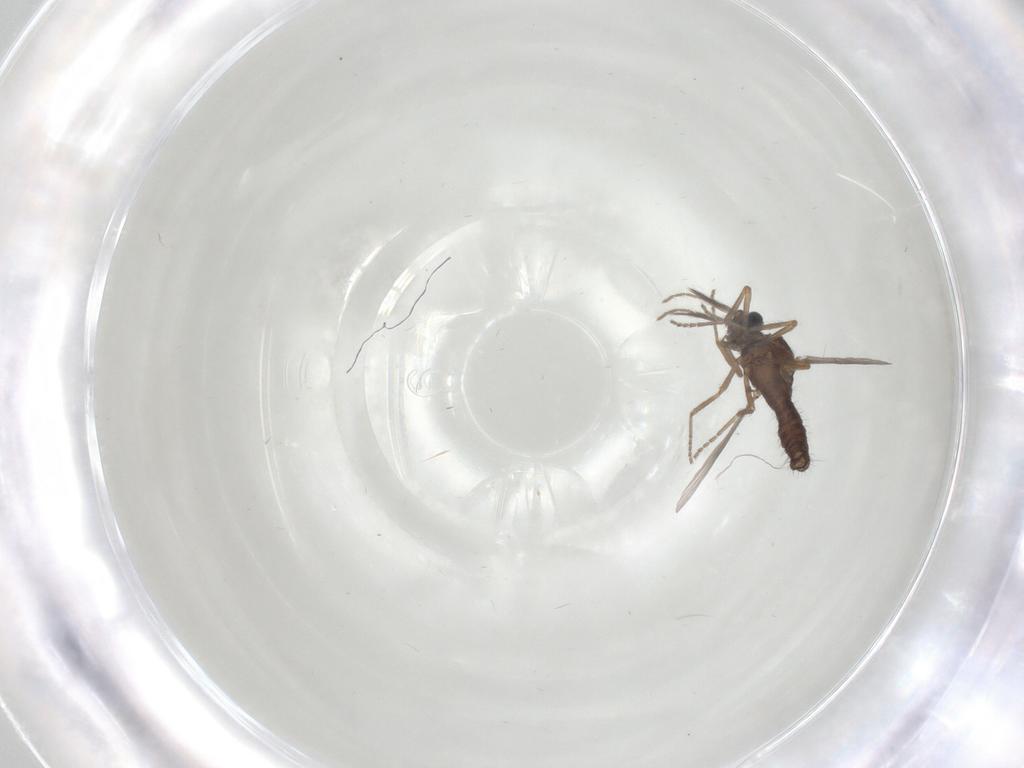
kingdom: Animalia
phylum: Arthropoda
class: Insecta
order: Diptera
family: Ceratopogonidae
